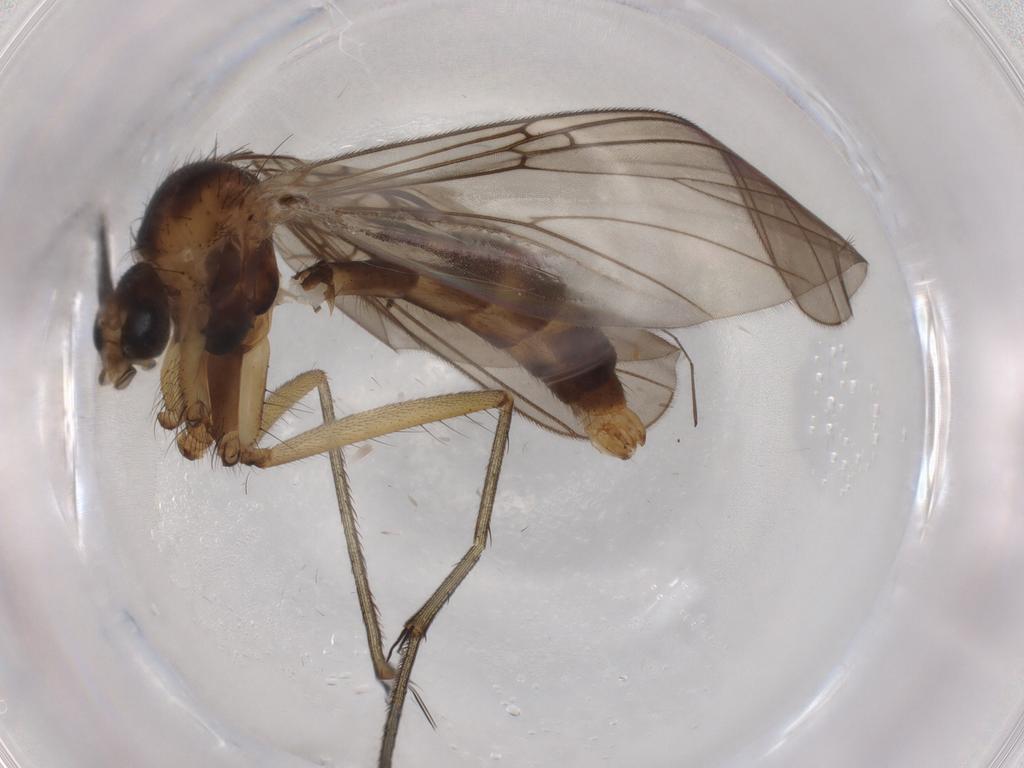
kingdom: Animalia
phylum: Arthropoda
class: Insecta
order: Diptera
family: Mycetophilidae
